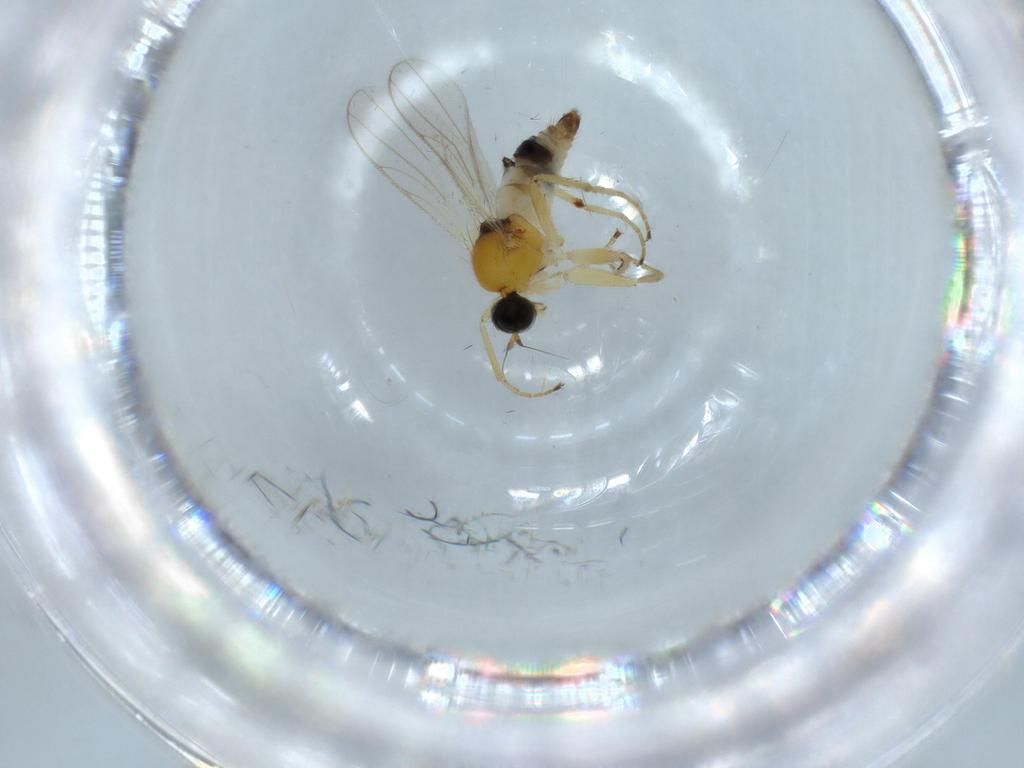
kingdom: Animalia
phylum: Arthropoda
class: Insecta
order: Diptera
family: Hybotidae
